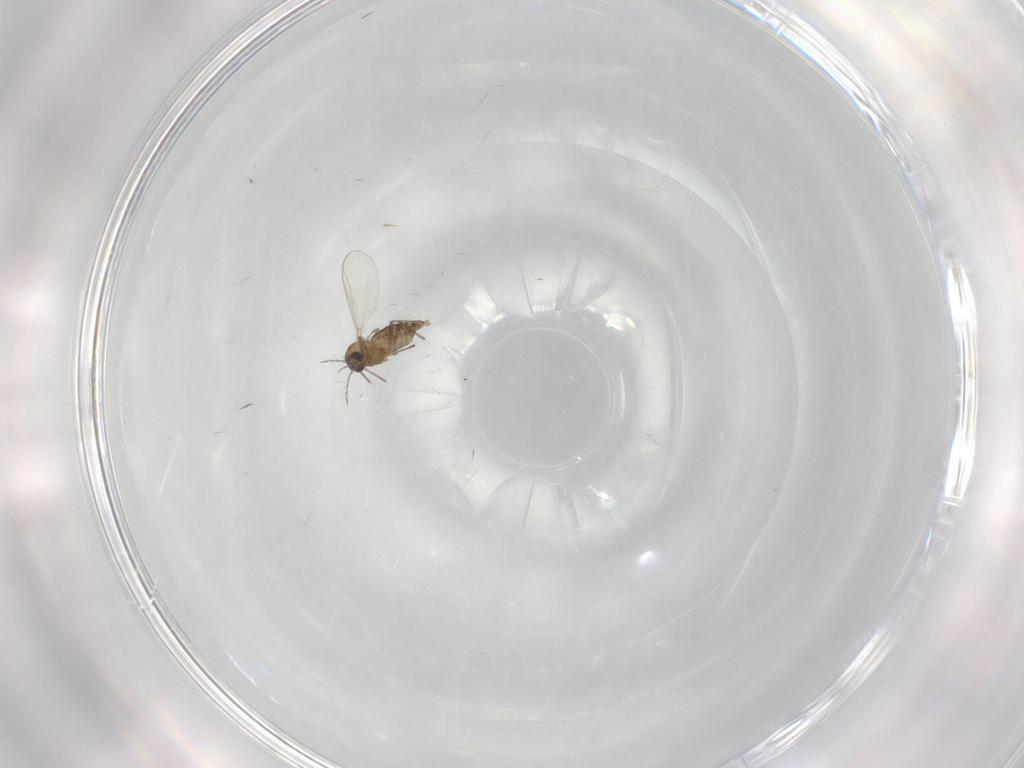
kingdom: Animalia
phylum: Arthropoda
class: Insecta
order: Diptera
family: Chironomidae
